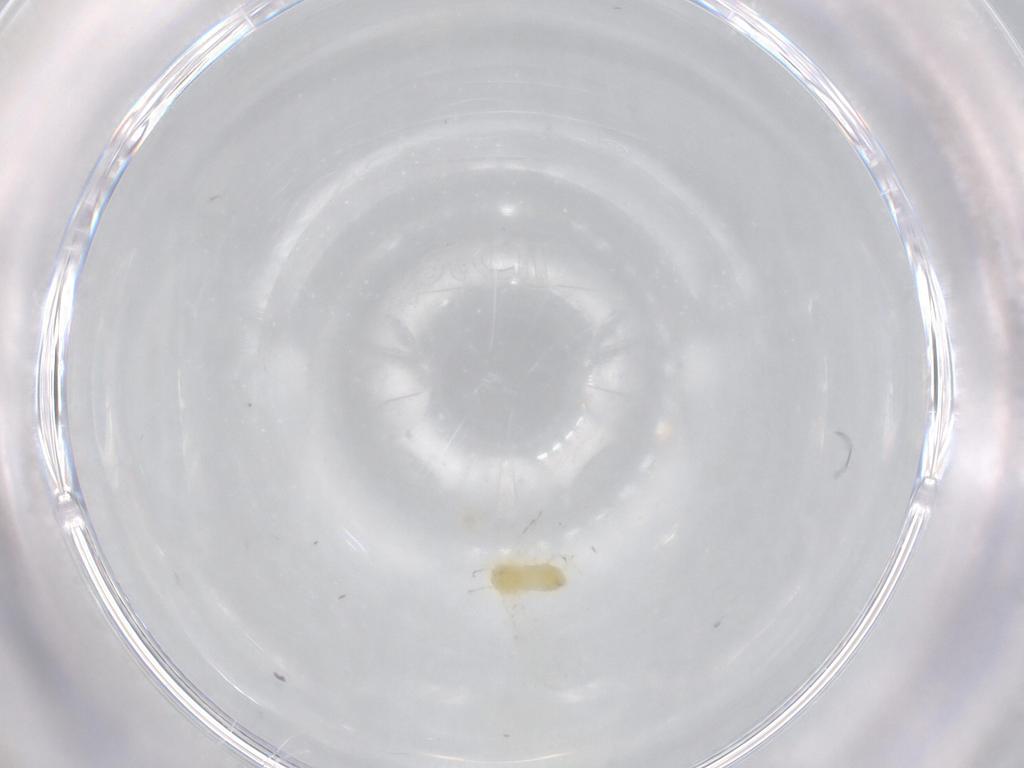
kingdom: Animalia
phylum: Arthropoda
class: Insecta
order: Hemiptera
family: Aleyrodidae
